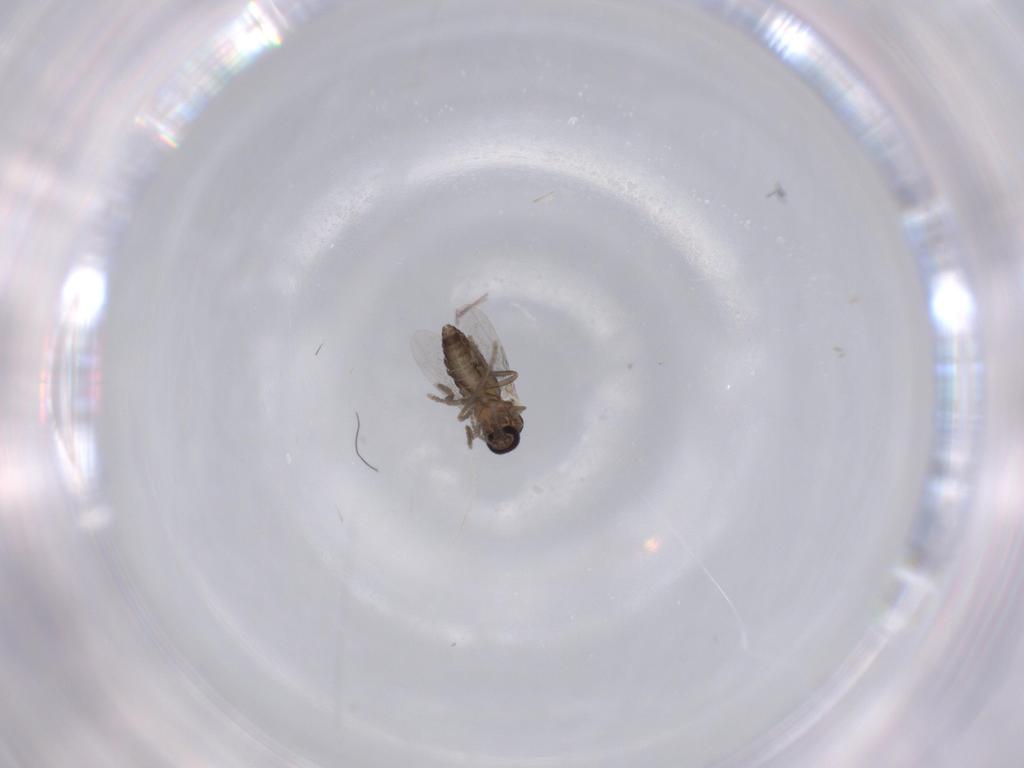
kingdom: Animalia
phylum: Arthropoda
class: Insecta
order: Diptera
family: Ceratopogonidae
